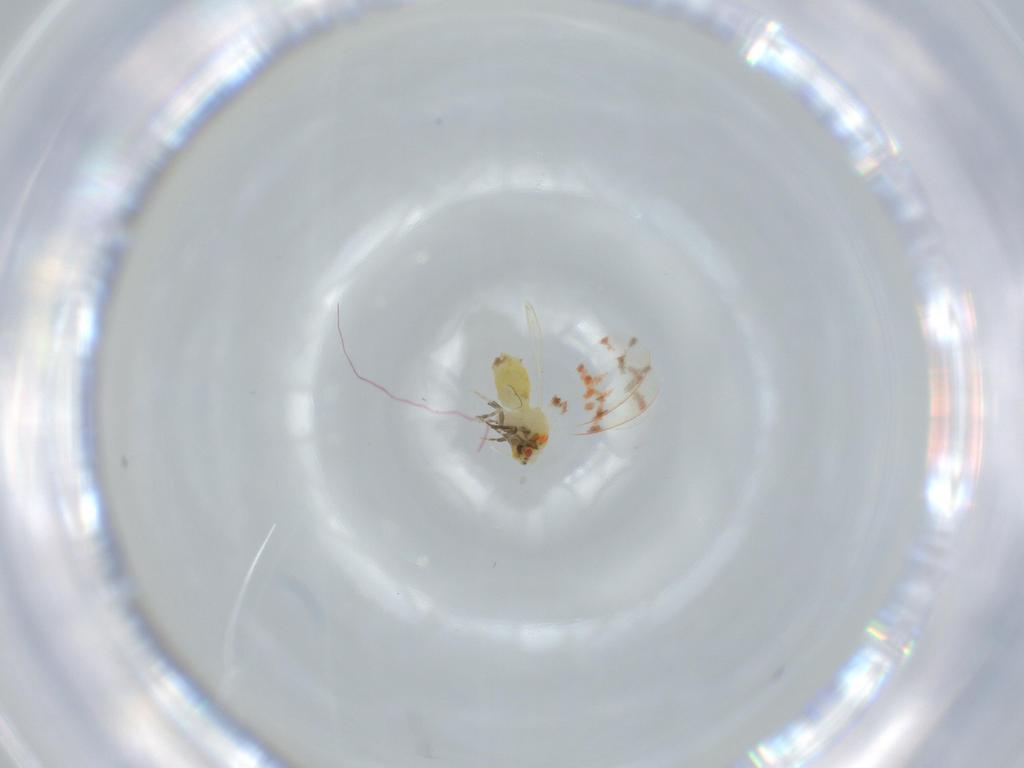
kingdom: Animalia
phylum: Arthropoda
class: Insecta
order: Hemiptera
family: Aleyrodidae
